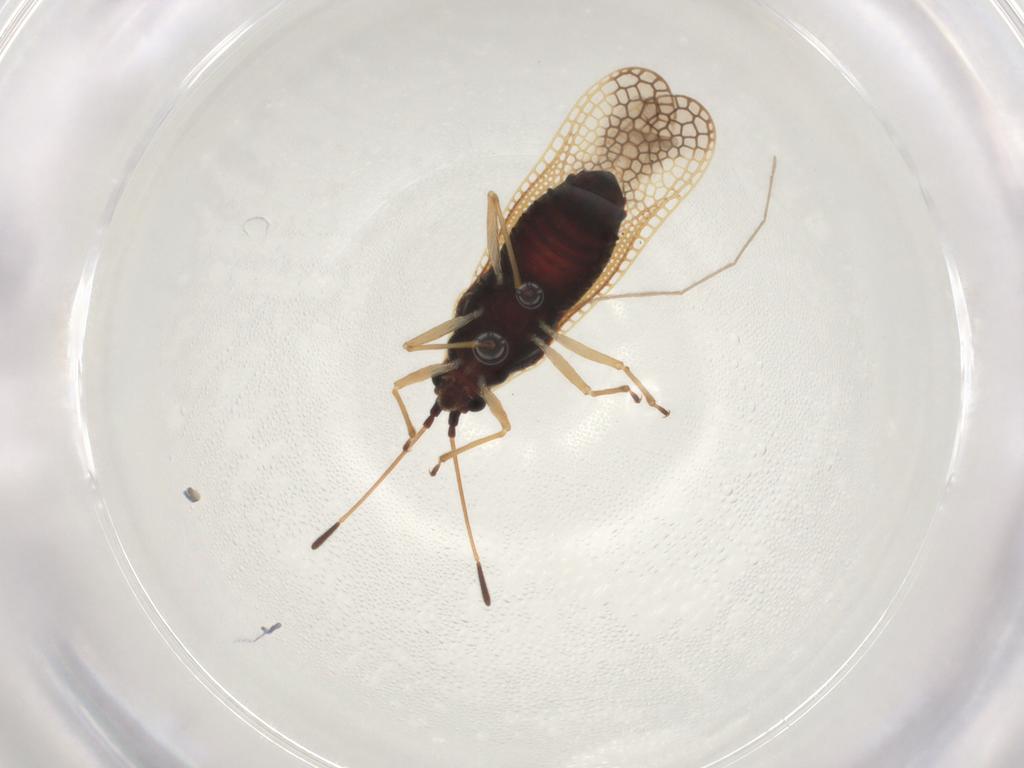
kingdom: Animalia
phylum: Arthropoda
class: Insecta
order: Hemiptera
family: Tingidae
